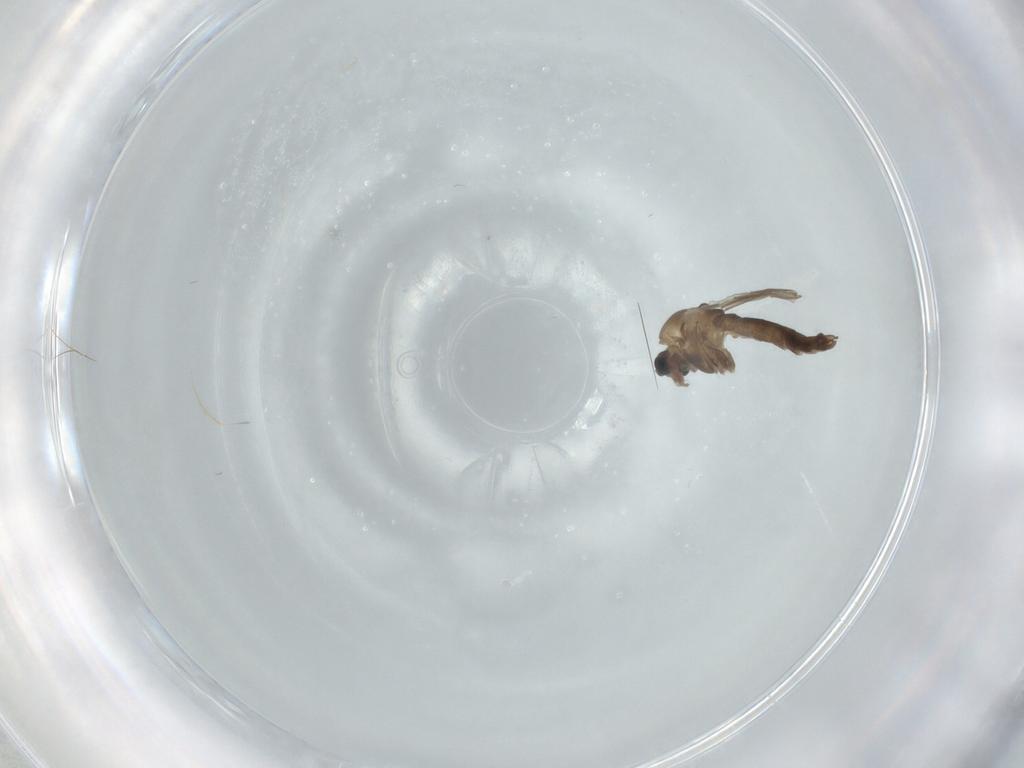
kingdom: Animalia
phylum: Arthropoda
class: Insecta
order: Diptera
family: Chironomidae
